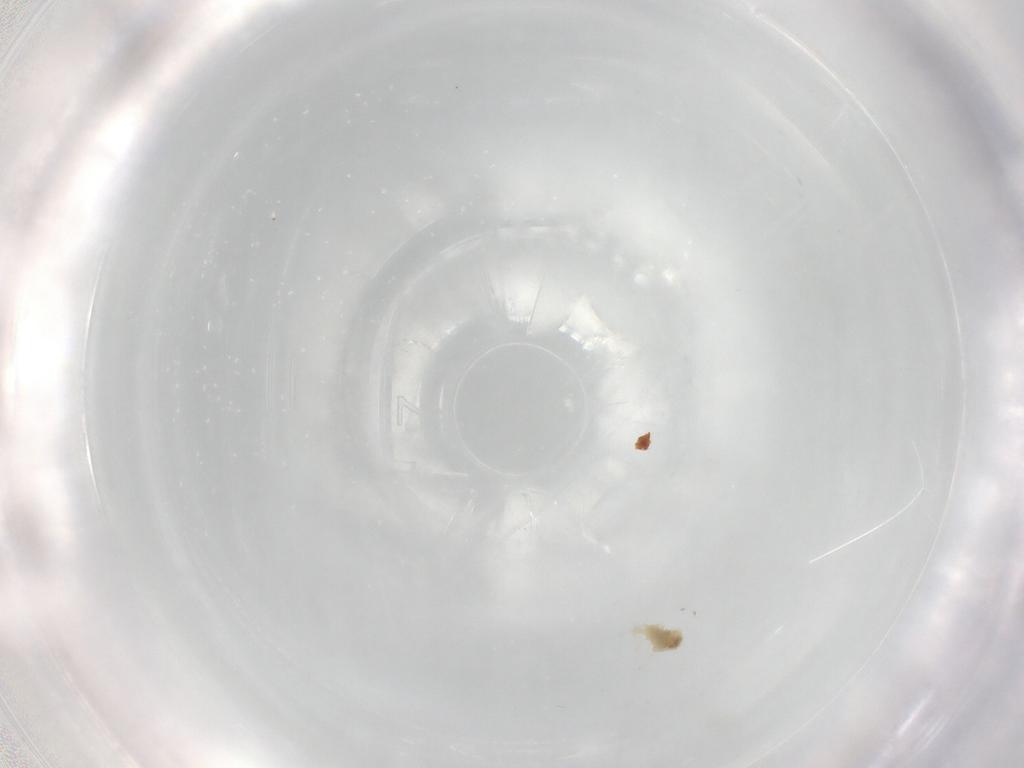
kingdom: Animalia
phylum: Arthropoda
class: Arachnida
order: Trombidiformes
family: Eupodidae
